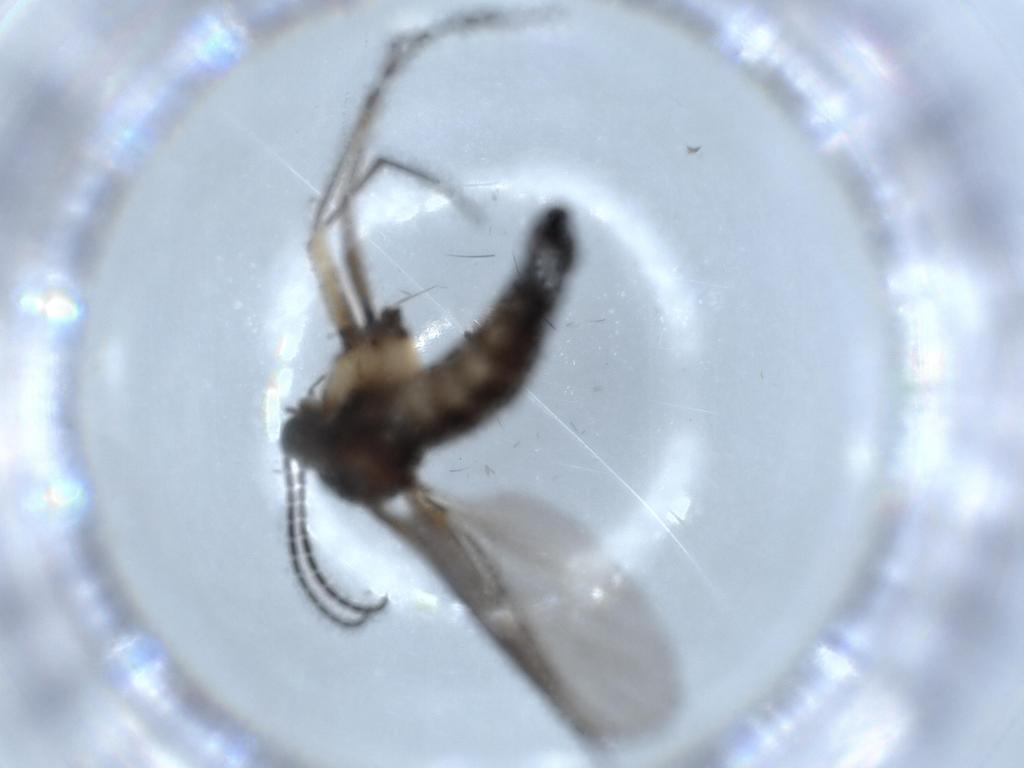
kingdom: Animalia
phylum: Arthropoda
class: Insecta
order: Diptera
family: Sciaridae
